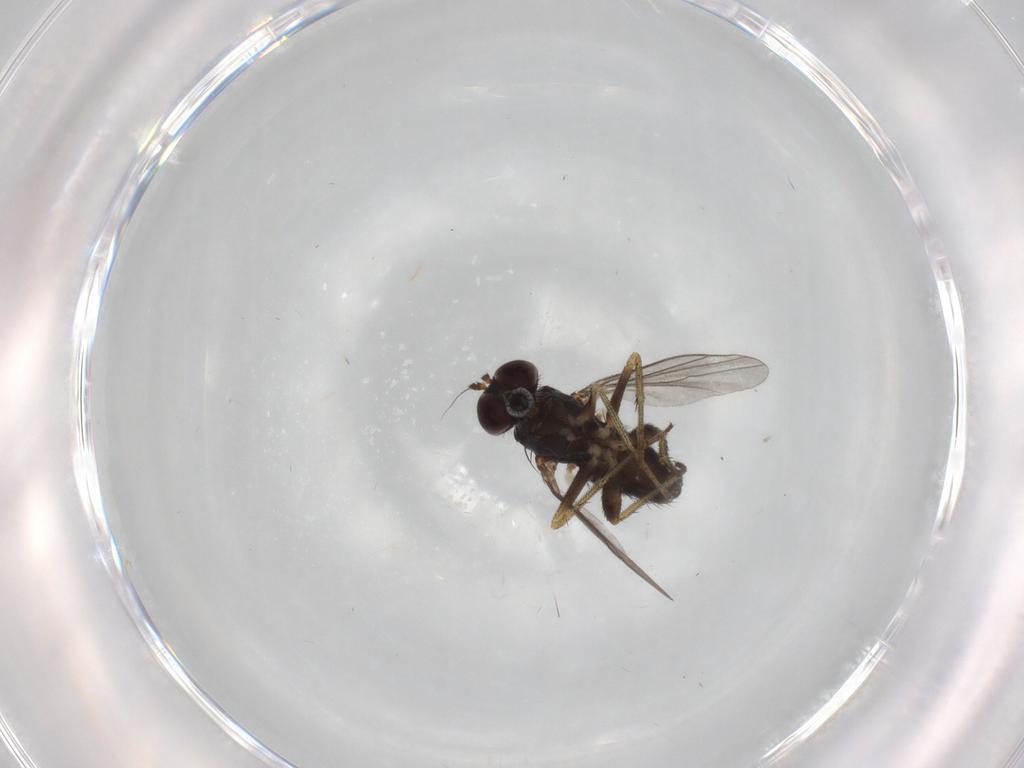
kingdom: Animalia
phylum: Arthropoda
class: Insecta
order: Diptera
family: Dolichopodidae
